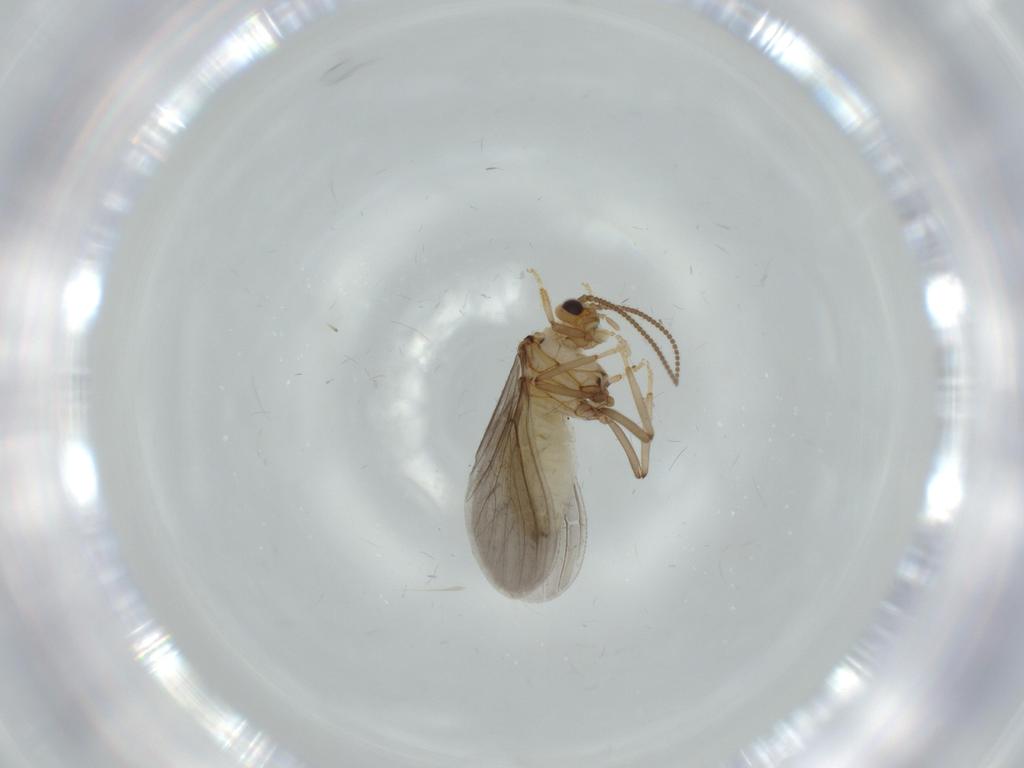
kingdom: Animalia
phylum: Arthropoda
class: Insecta
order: Neuroptera
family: Coniopterygidae
